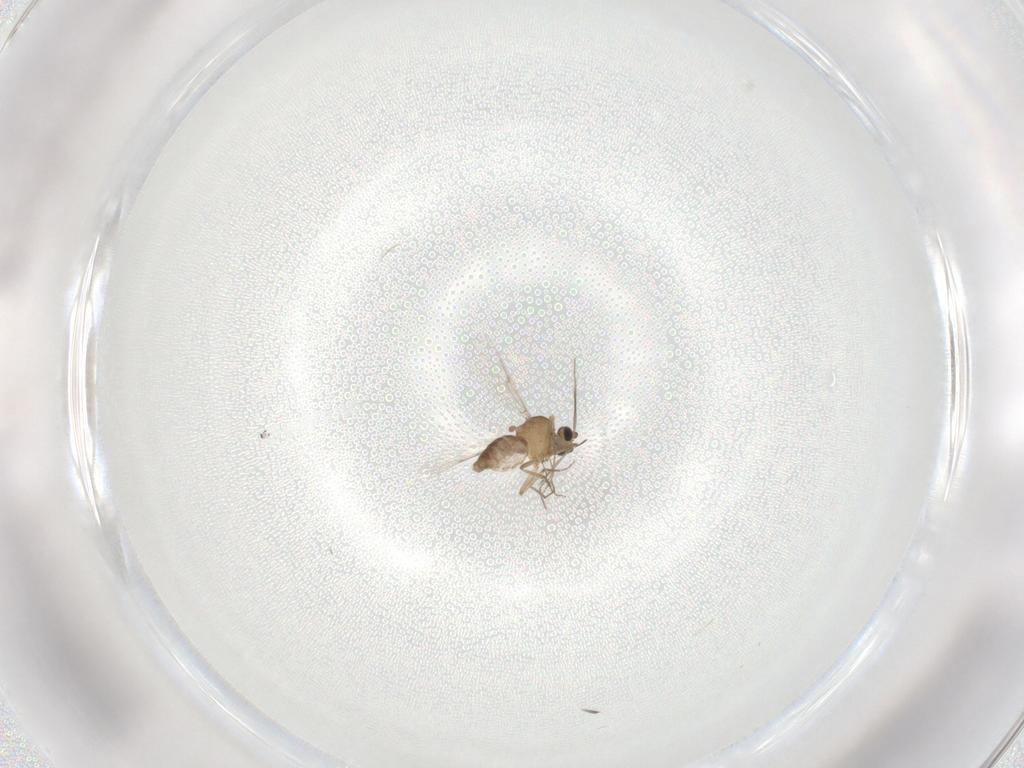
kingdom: Animalia
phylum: Arthropoda
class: Insecta
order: Diptera
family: Ceratopogonidae
